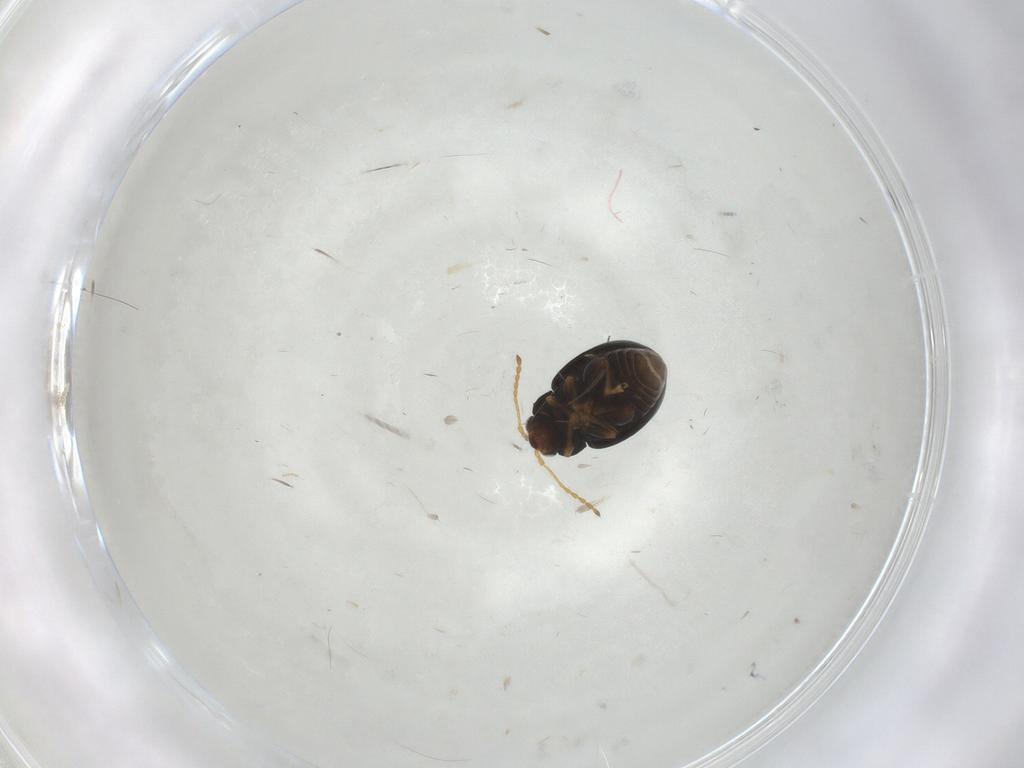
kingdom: Animalia
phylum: Arthropoda
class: Insecta
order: Coleoptera
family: Chrysomelidae
